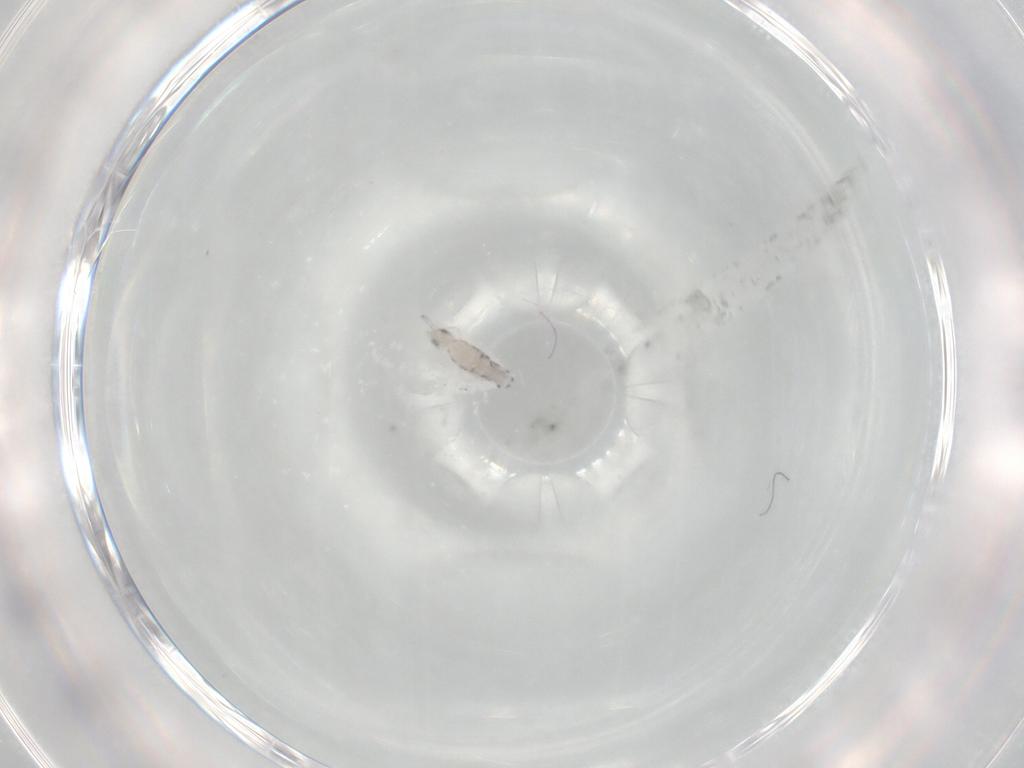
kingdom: Animalia
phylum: Arthropoda
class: Collembola
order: Entomobryomorpha
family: Entomobryidae
